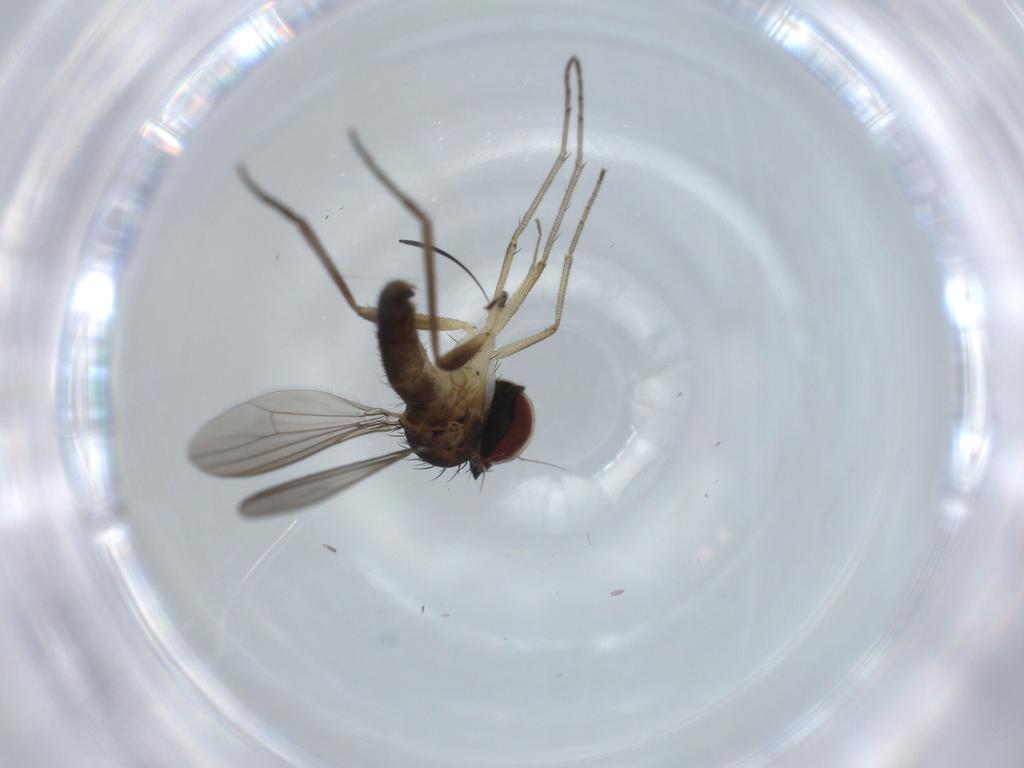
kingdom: Animalia
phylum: Arthropoda
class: Insecta
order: Diptera
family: Dolichopodidae
